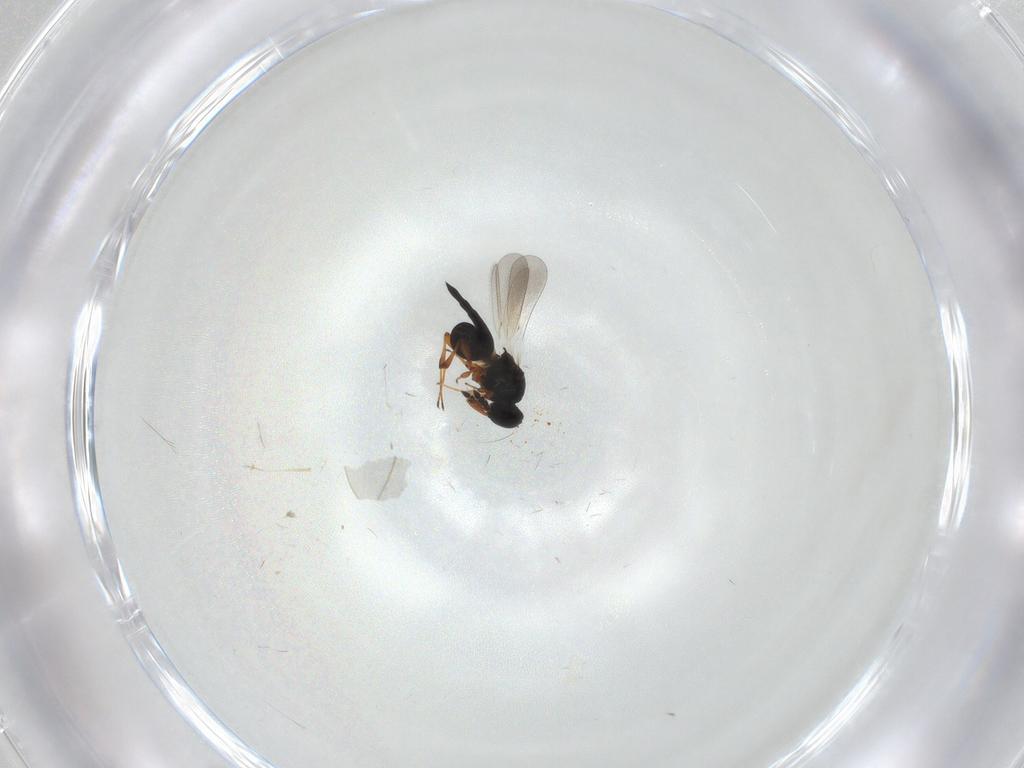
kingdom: Animalia
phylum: Arthropoda
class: Insecta
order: Hymenoptera
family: Platygastridae
